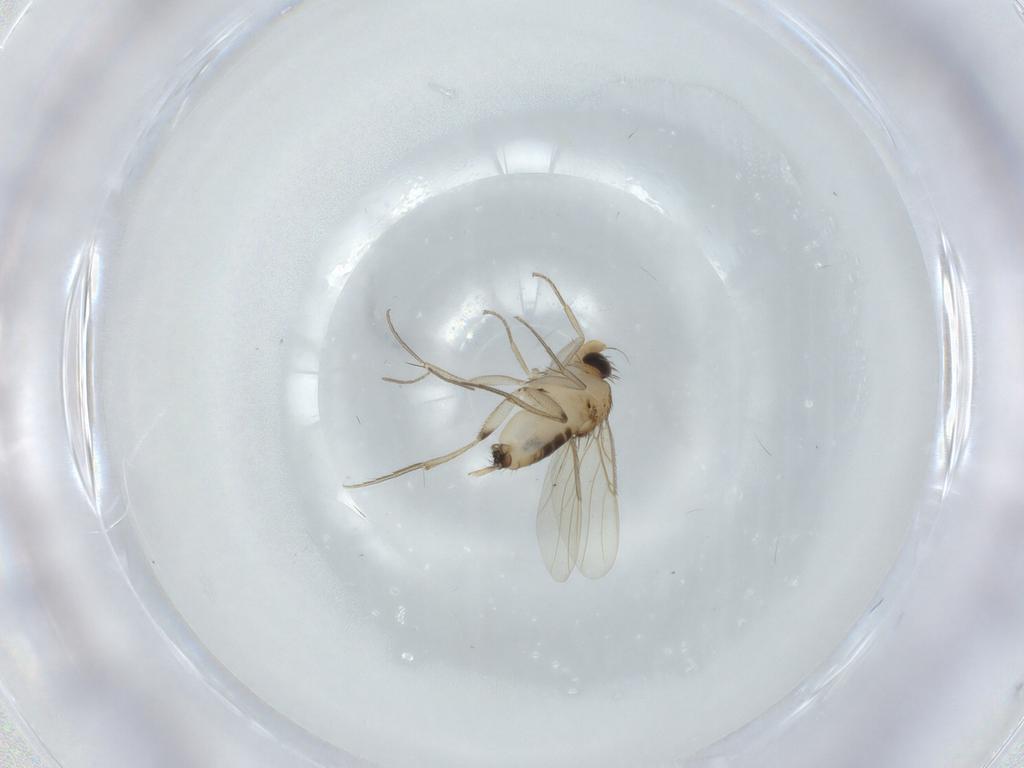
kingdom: Animalia
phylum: Arthropoda
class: Insecta
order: Diptera
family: Phoridae
